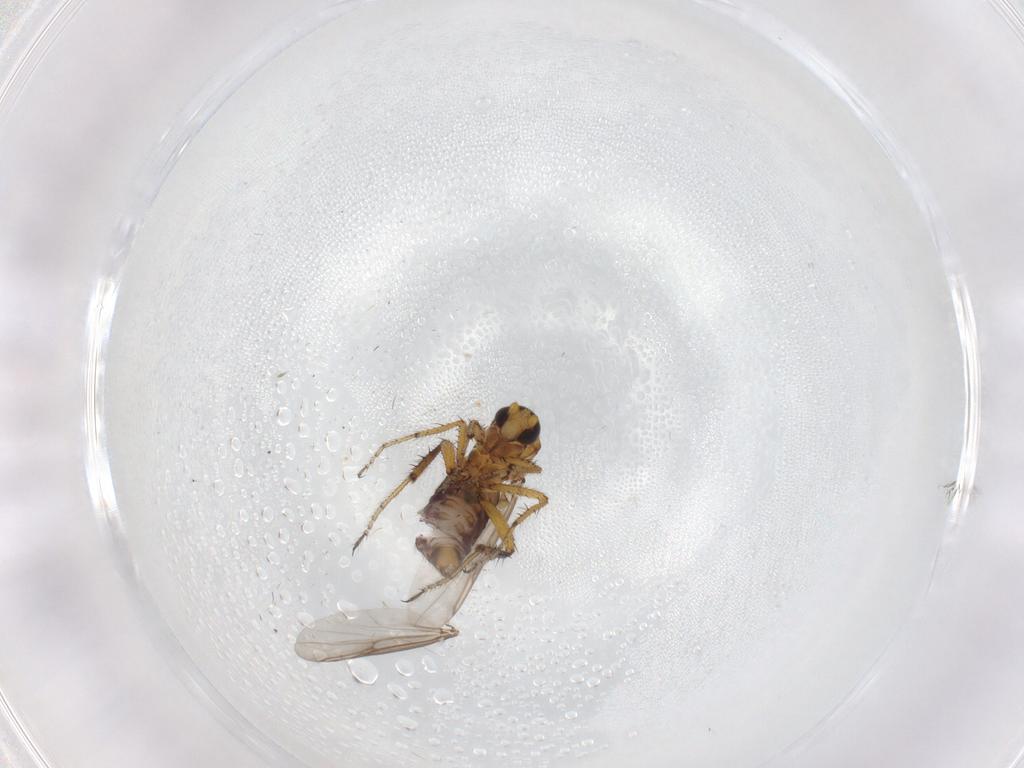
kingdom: Animalia
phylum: Arthropoda
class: Insecta
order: Diptera
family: Ceratopogonidae
